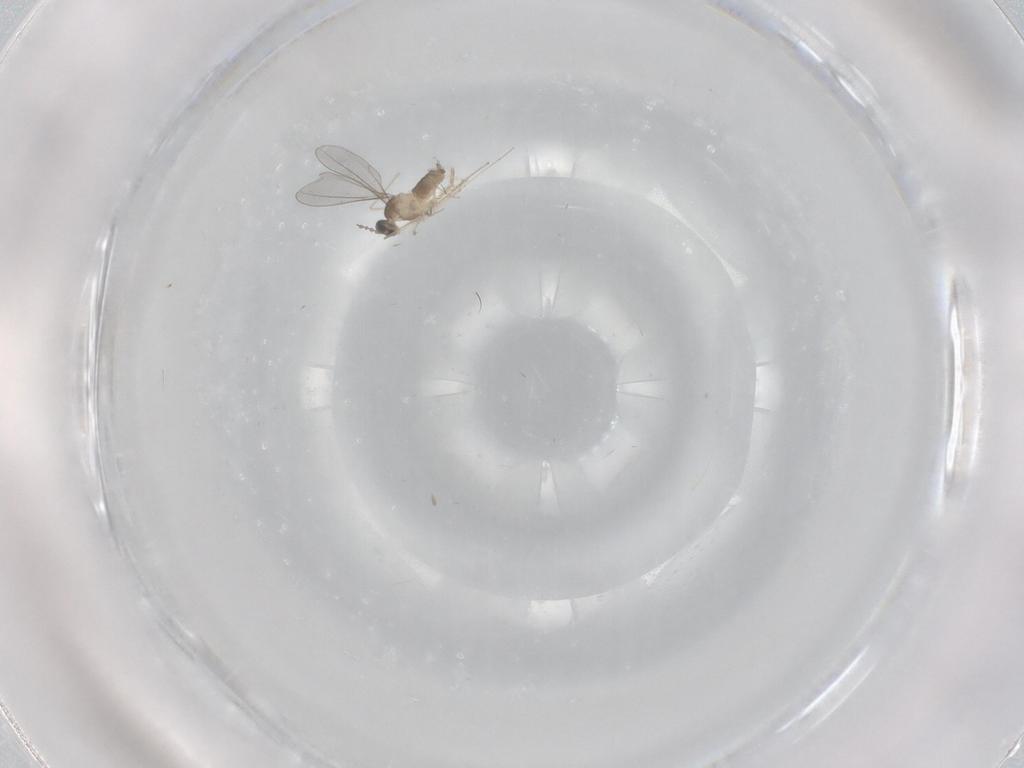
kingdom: Animalia
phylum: Arthropoda
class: Insecta
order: Diptera
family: Cecidomyiidae
